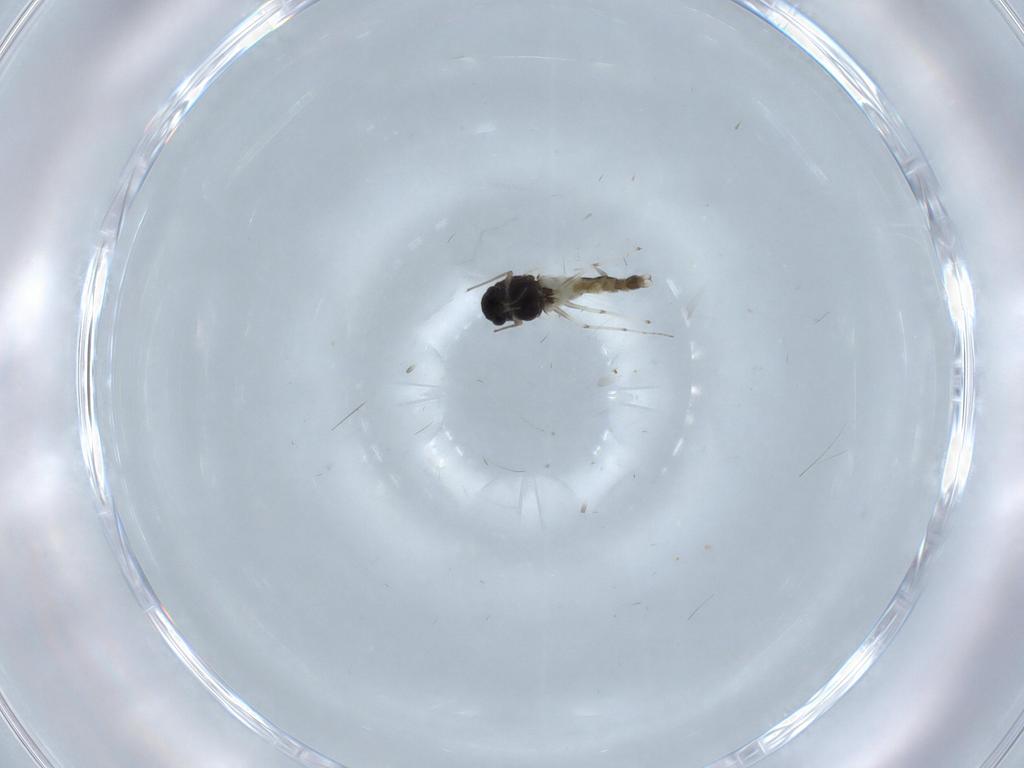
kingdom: Animalia
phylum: Arthropoda
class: Insecta
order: Diptera
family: Chironomidae
